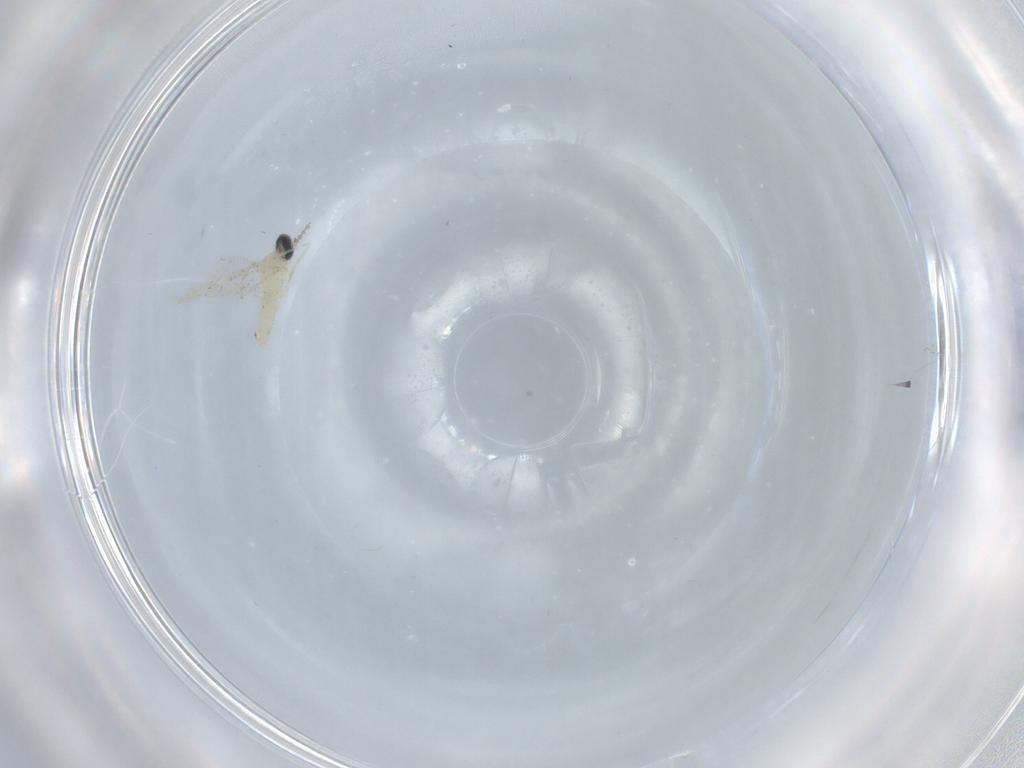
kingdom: Animalia
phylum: Arthropoda
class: Insecta
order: Diptera
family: Cecidomyiidae
